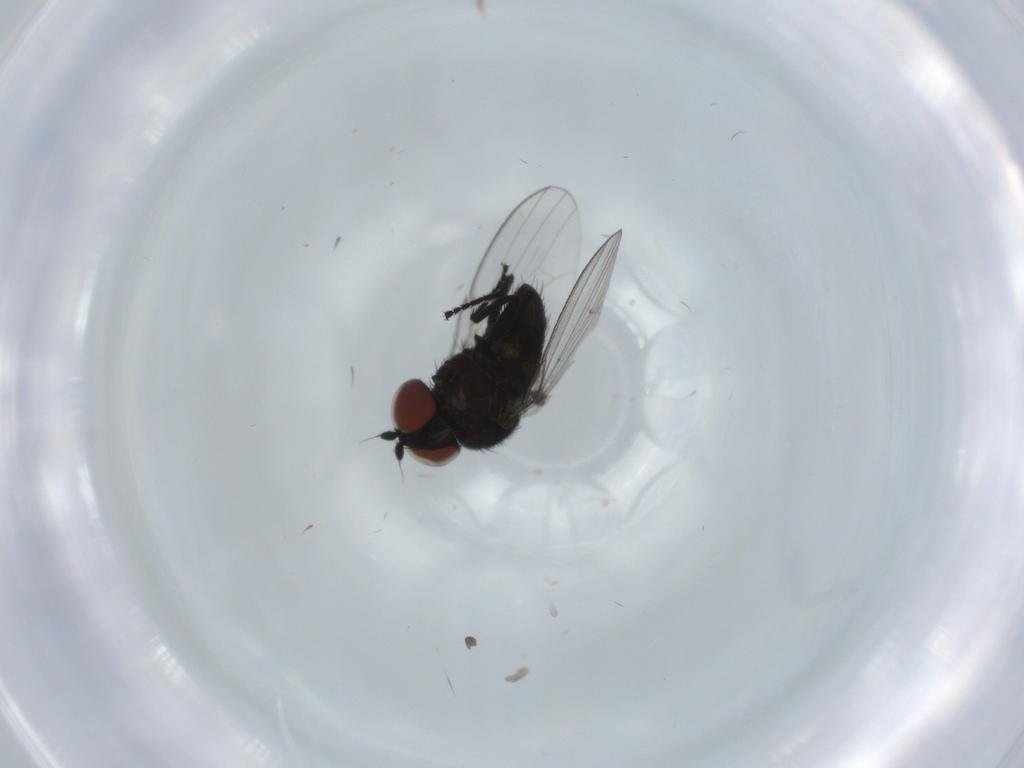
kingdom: Animalia
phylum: Arthropoda
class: Insecta
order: Diptera
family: Milichiidae
